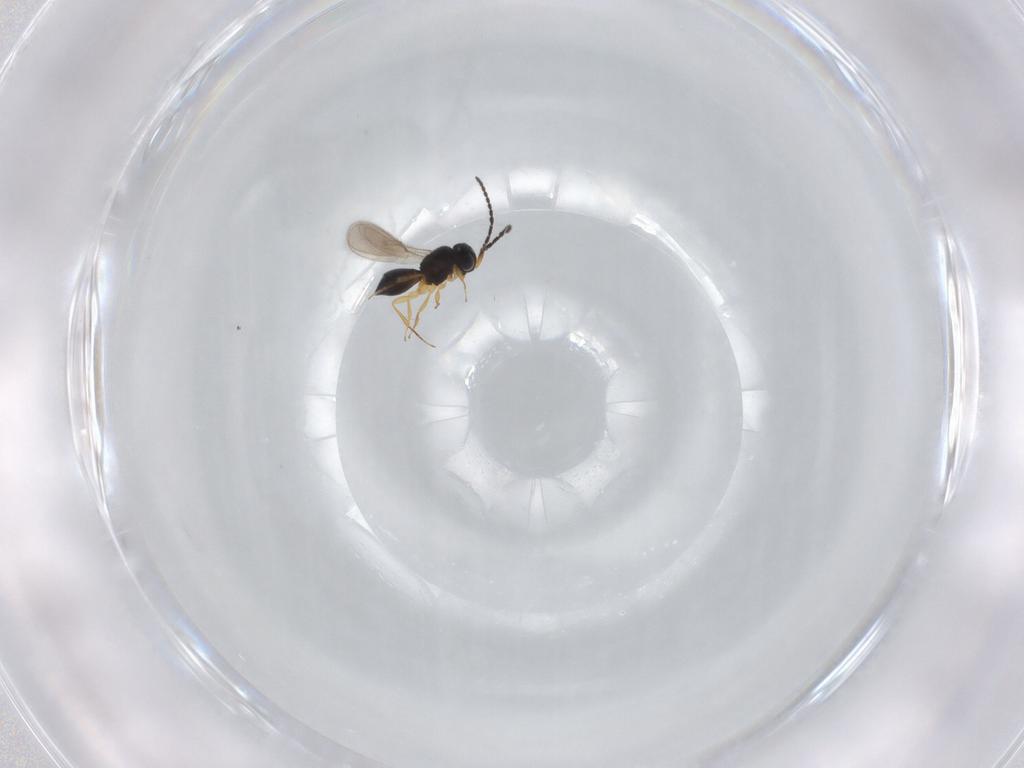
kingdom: Animalia
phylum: Arthropoda
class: Insecta
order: Hymenoptera
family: Scelionidae
